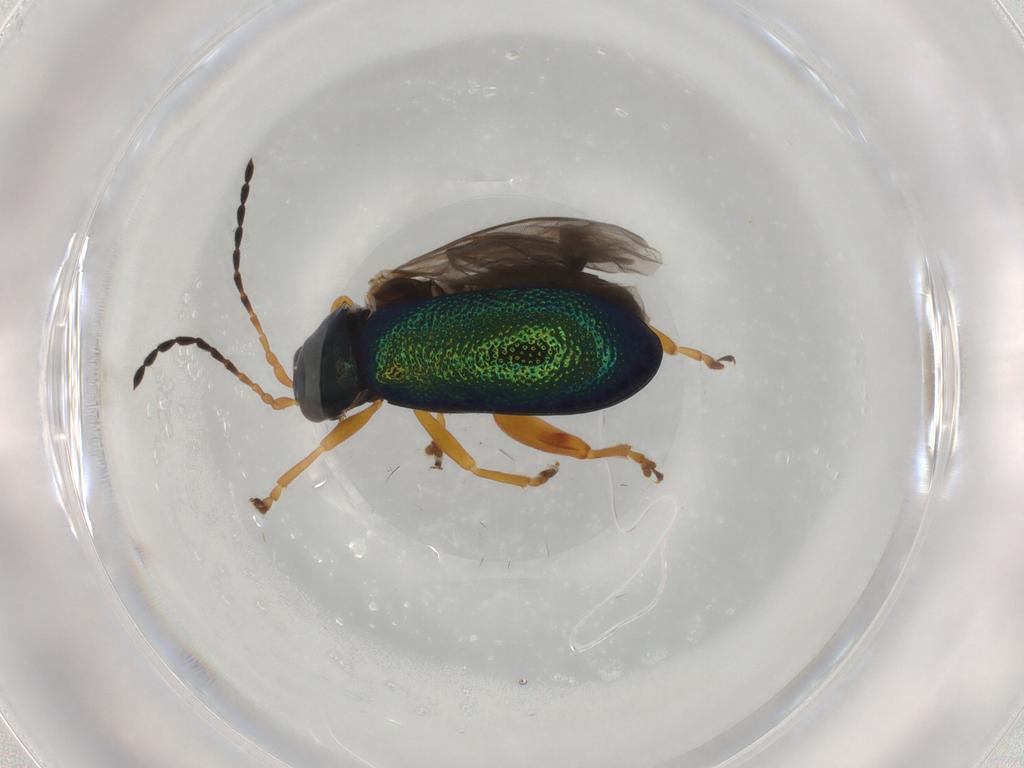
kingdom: Animalia
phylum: Arthropoda
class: Insecta
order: Coleoptera
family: Chrysomelidae
